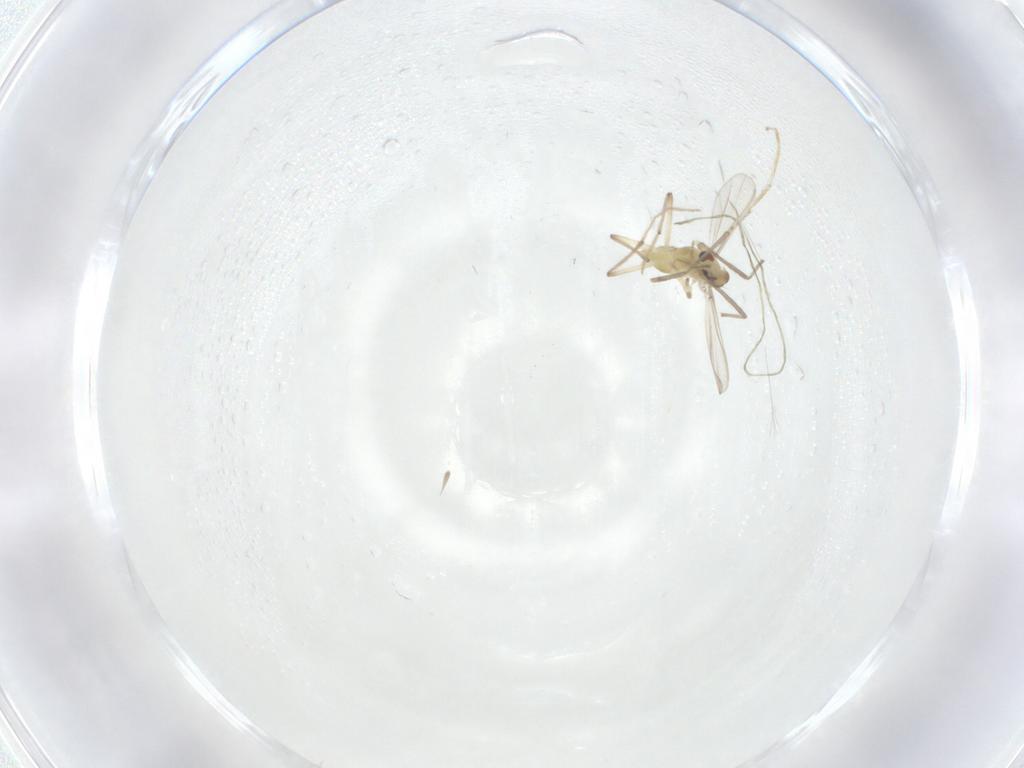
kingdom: Animalia
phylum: Arthropoda
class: Insecta
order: Diptera
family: Chironomidae
